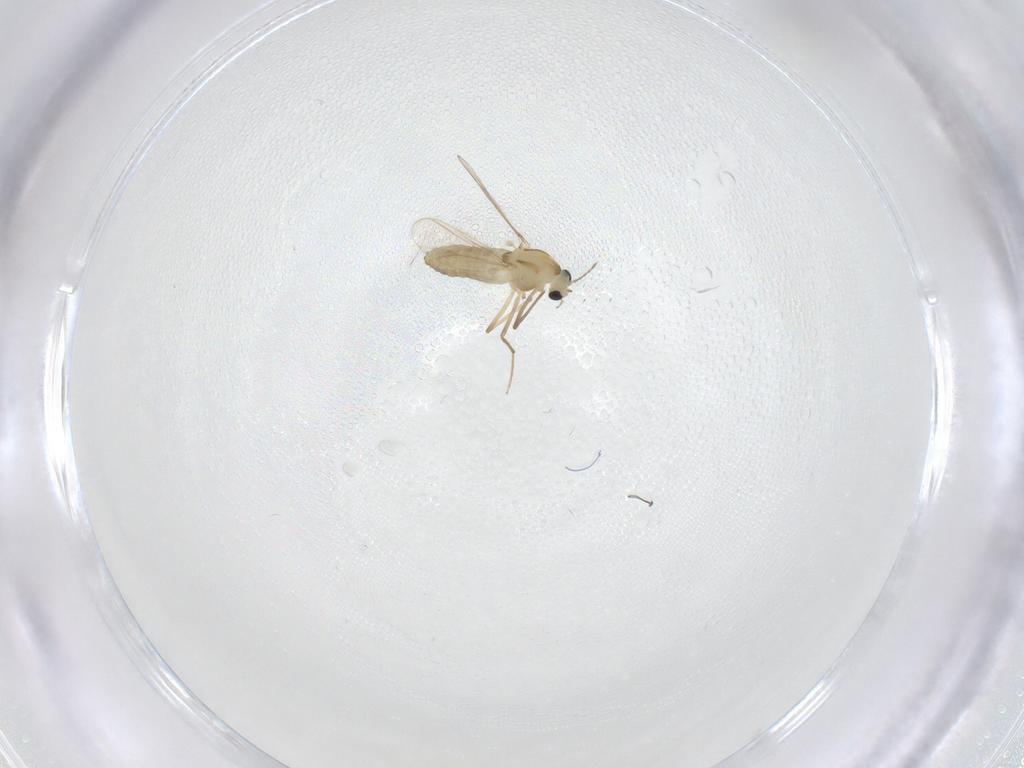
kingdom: Animalia
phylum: Arthropoda
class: Insecta
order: Diptera
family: Chironomidae
